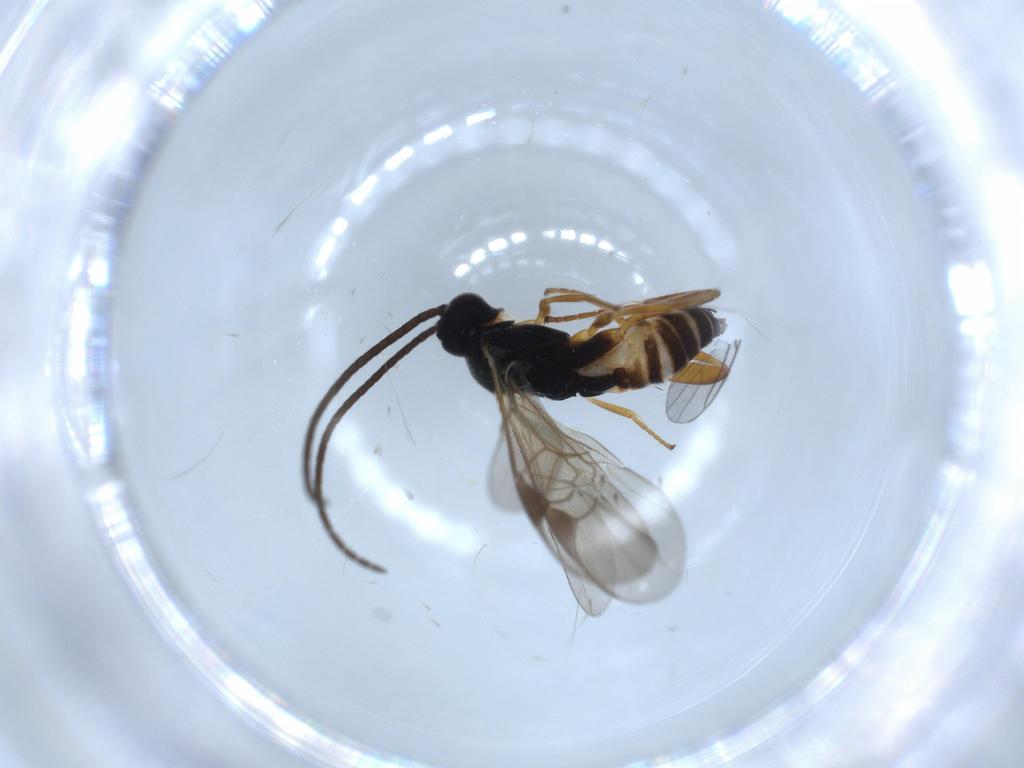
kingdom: Animalia
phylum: Arthropoda
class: Insecta
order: Hymenoptera
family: Braconidae
